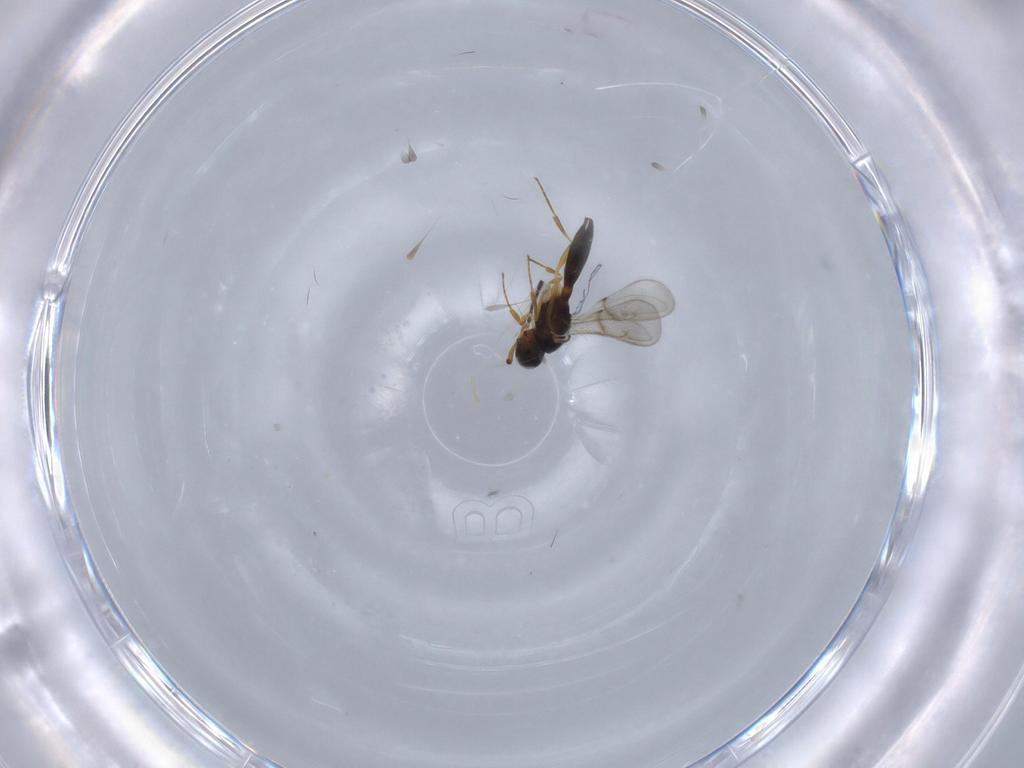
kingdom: Animalia
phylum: Arthropoda
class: Insecta
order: Hymenoptera
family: Scelionidae
